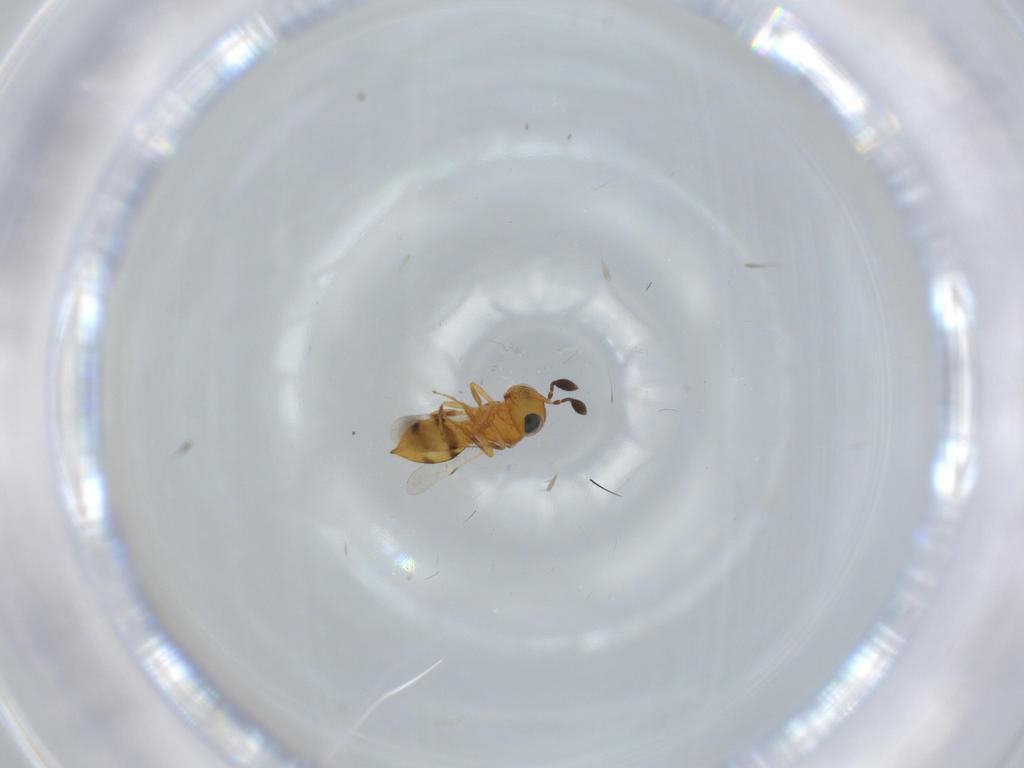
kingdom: Animalia
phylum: Arthropoda
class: Insecta
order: Hymenoptera
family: Scelionidae
